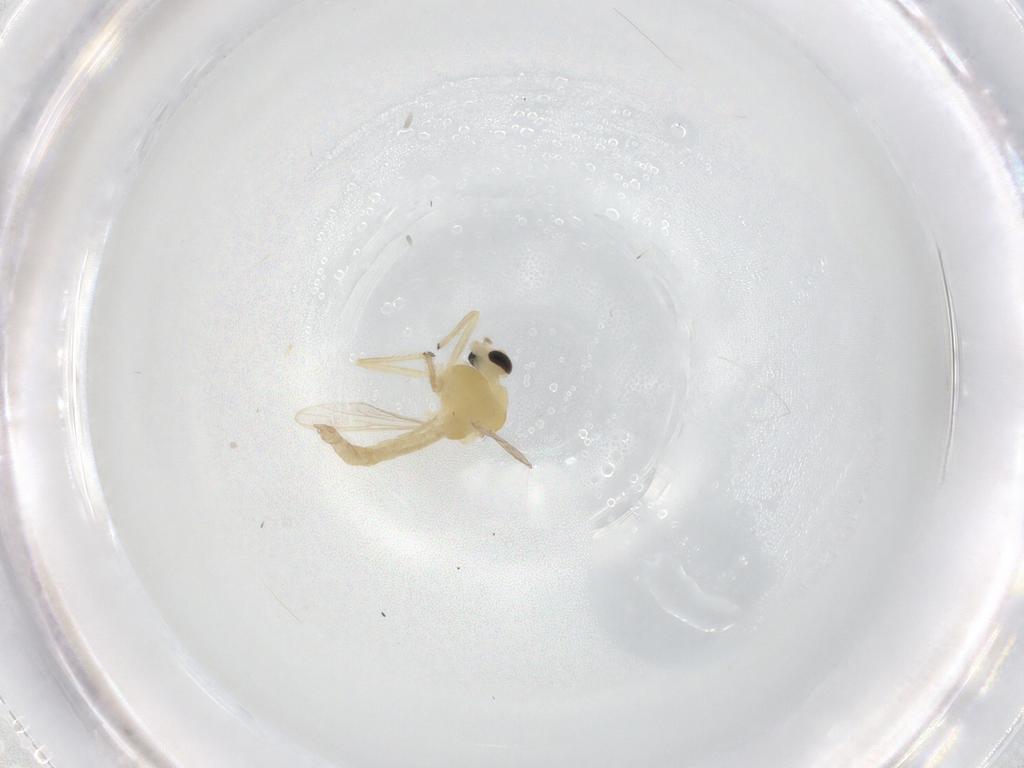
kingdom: Animalia
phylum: Arthropoda
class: Insecta
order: Diptera
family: Chironomidae
